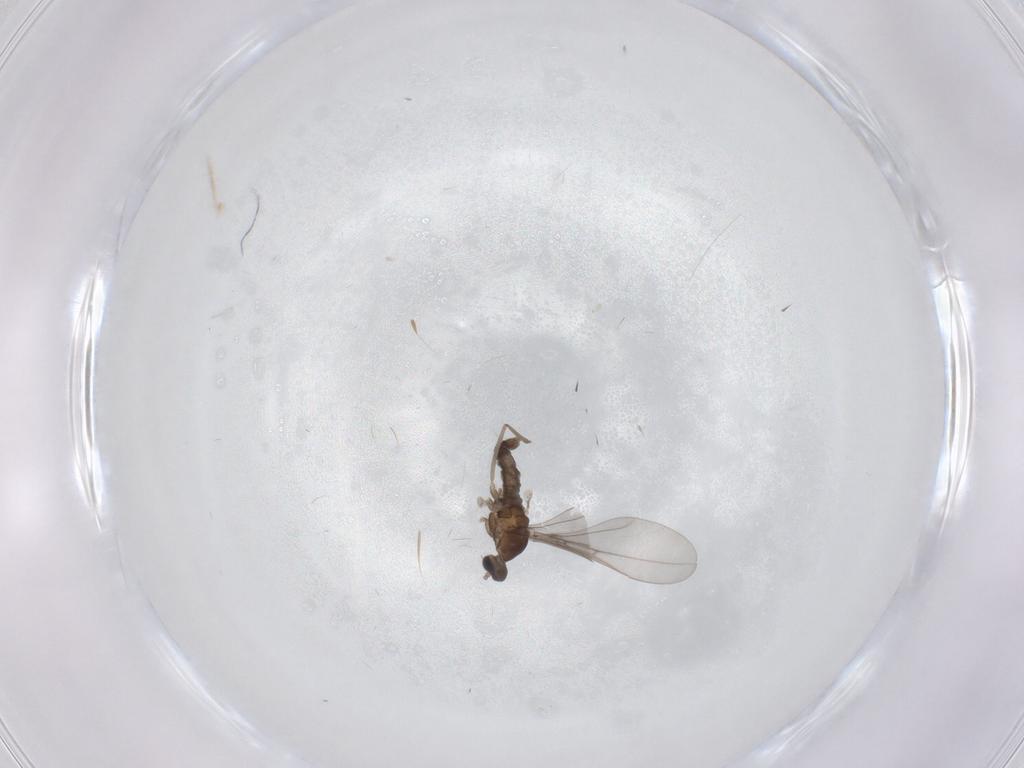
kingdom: Animalia
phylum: Arthropoda
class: Insecta
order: Diptera
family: Cecidomyiidae
